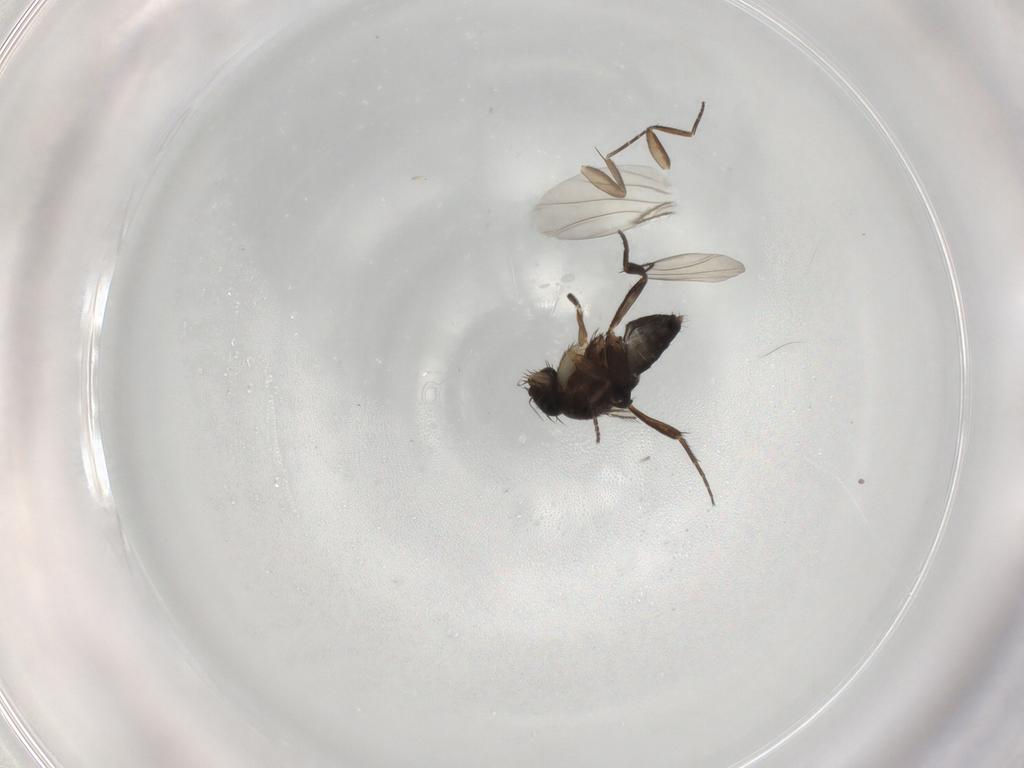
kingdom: Animalia
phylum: Arthropoda
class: Insecta
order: Diptera
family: Phoridae
